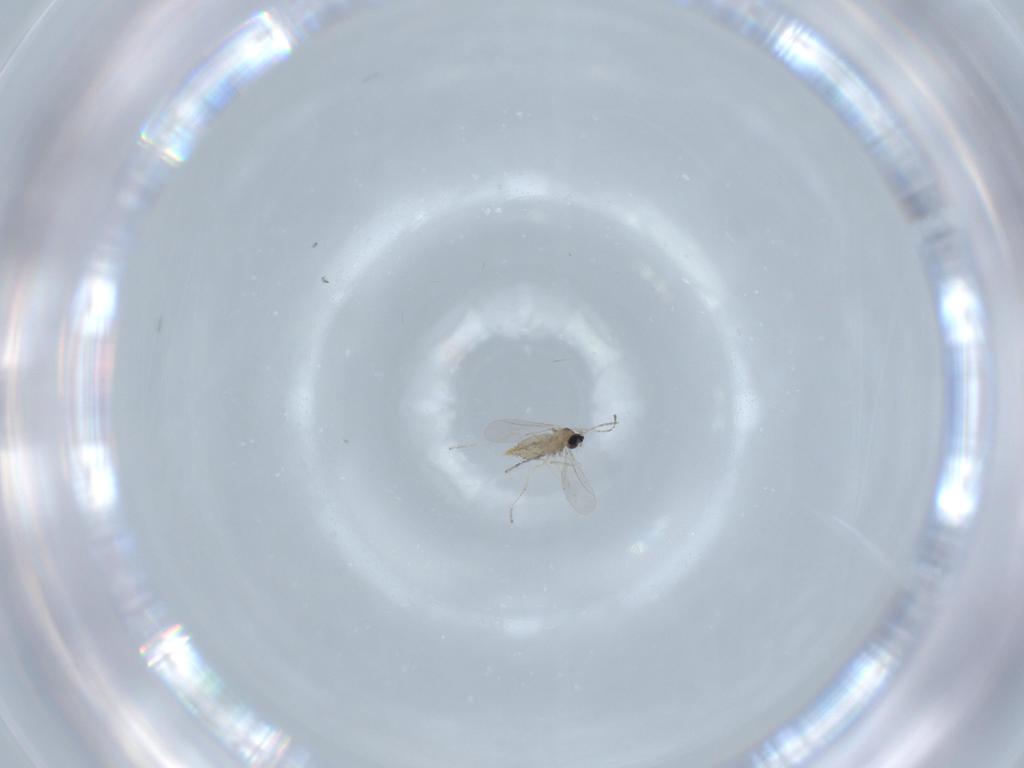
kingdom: Animalia
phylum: Arthropoda
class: Insecta
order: Diptera
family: Cecidomyiidae
